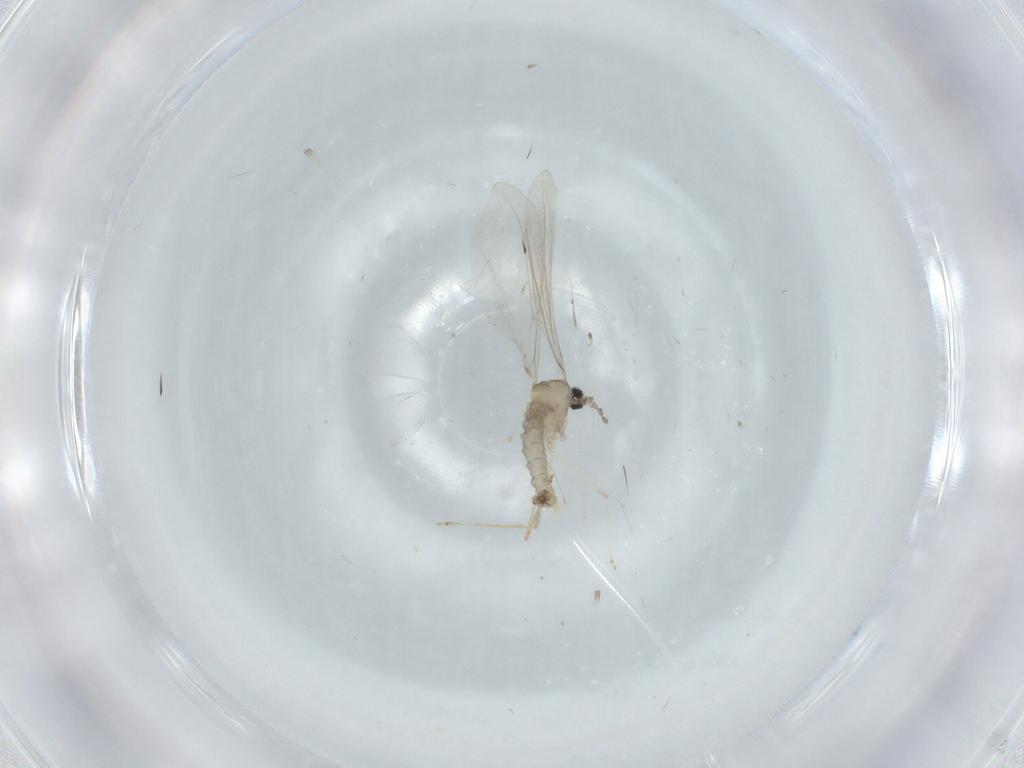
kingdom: Animalia
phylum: Arthropoda
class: Insecta
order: Diptera
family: Cecidomyiidae
